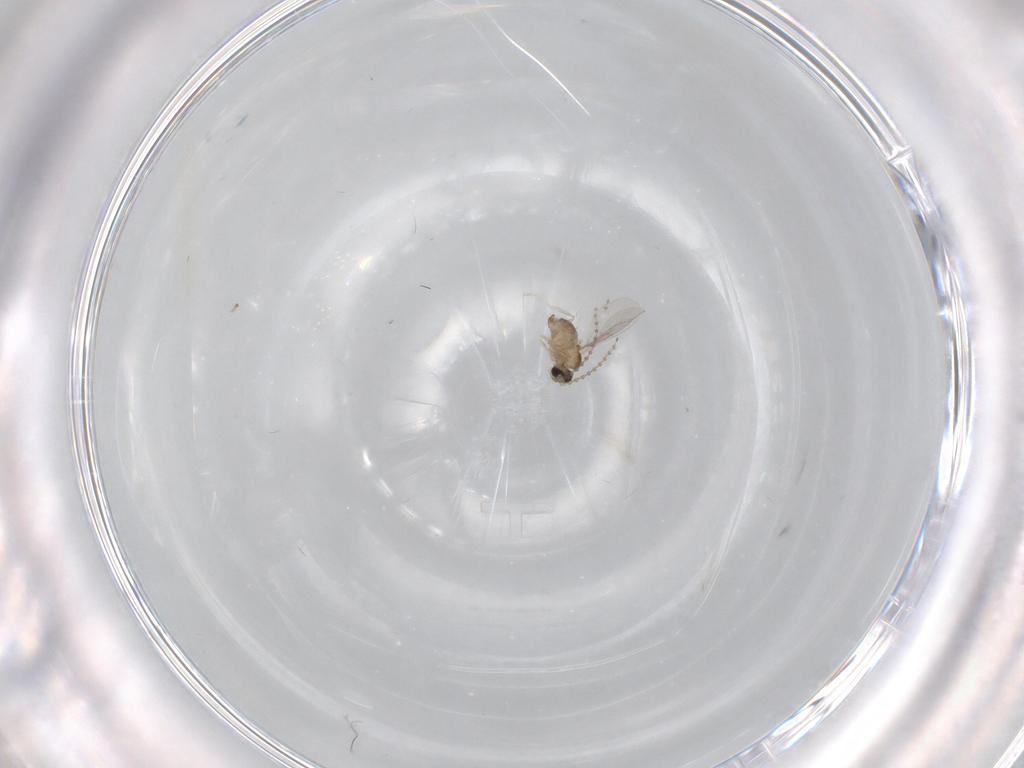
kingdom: Animalia
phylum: Arthropoda
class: Insecta
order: Diptera
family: Cecidomyiidae
